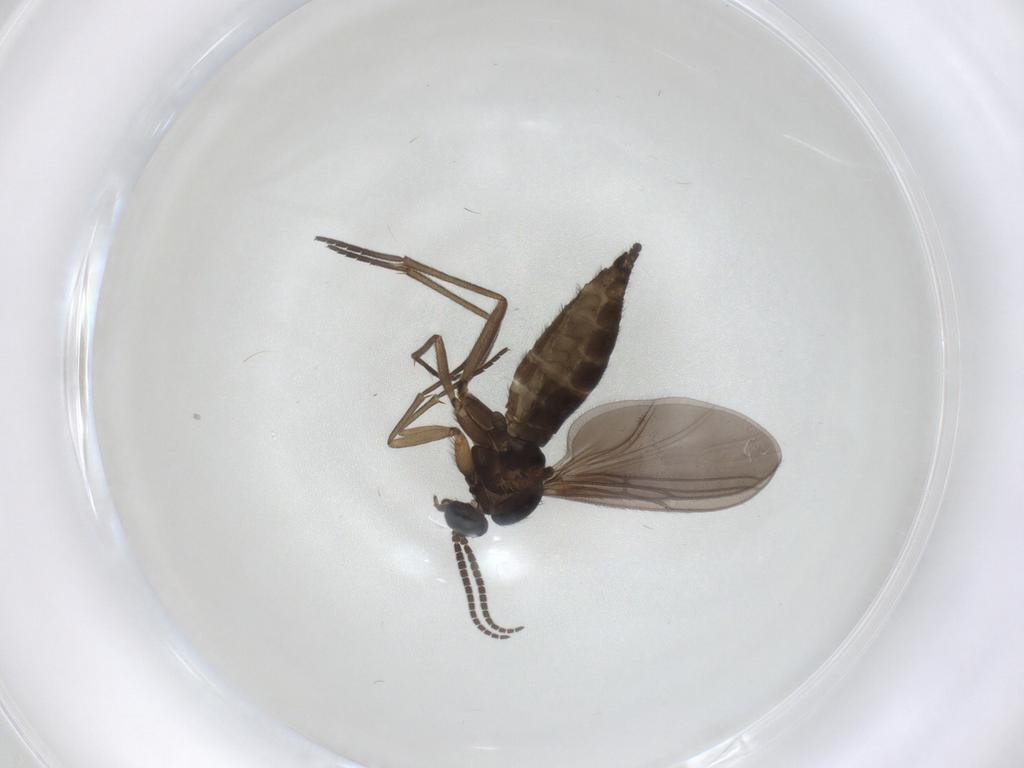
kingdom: Animalia
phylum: Arthropoda
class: Insecta
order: Diptera
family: Sciaridae
